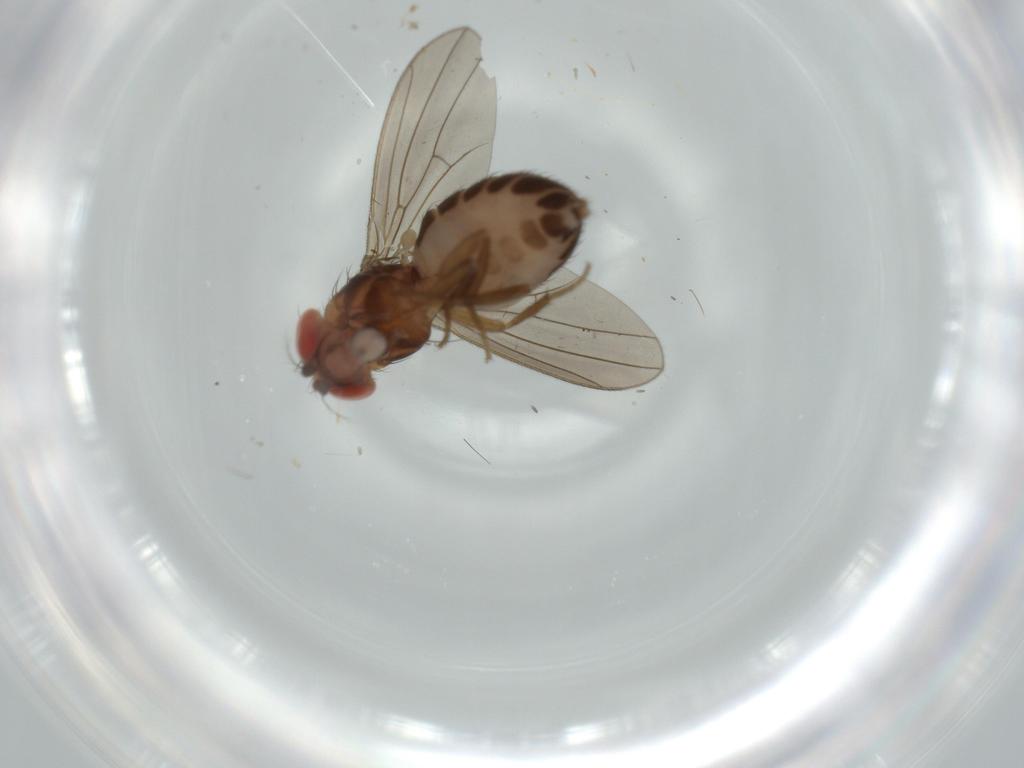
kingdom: Animalia
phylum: Arthropoda
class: Insecta
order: Diptera
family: Drosophilidae
